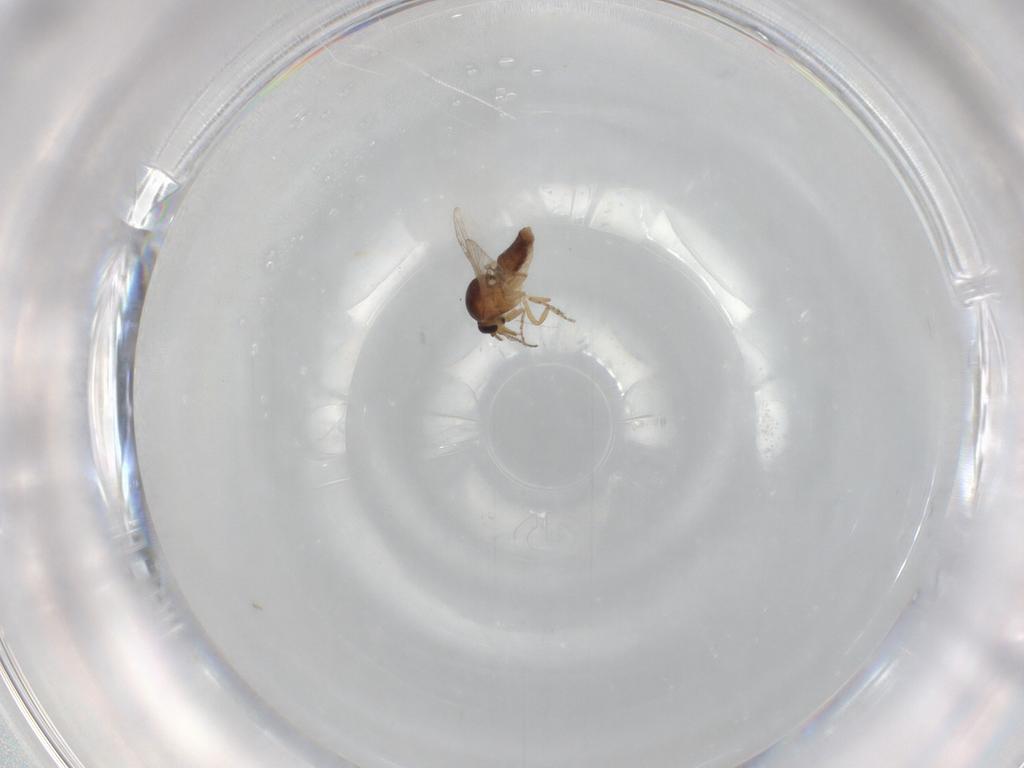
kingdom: Animalia
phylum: Arthropoda
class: Insecta
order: Diptera
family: Ceratopogonidae
